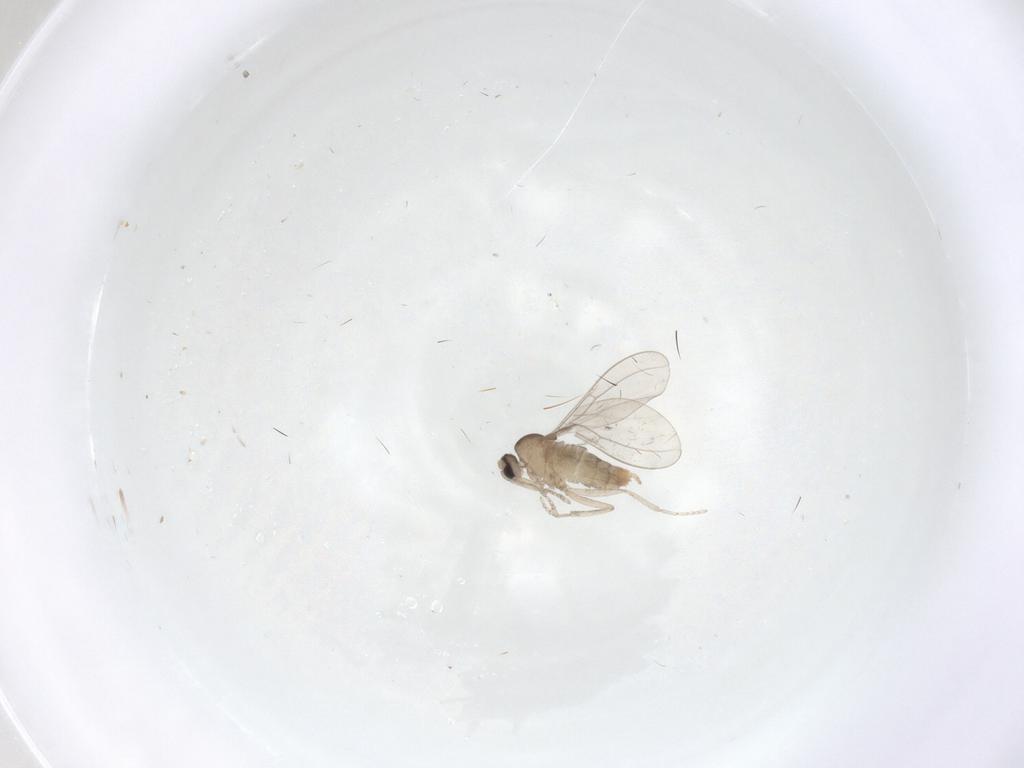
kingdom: Animalia
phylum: Arthropoda
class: Insecta
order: Diptera
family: Cecidomyiidae
